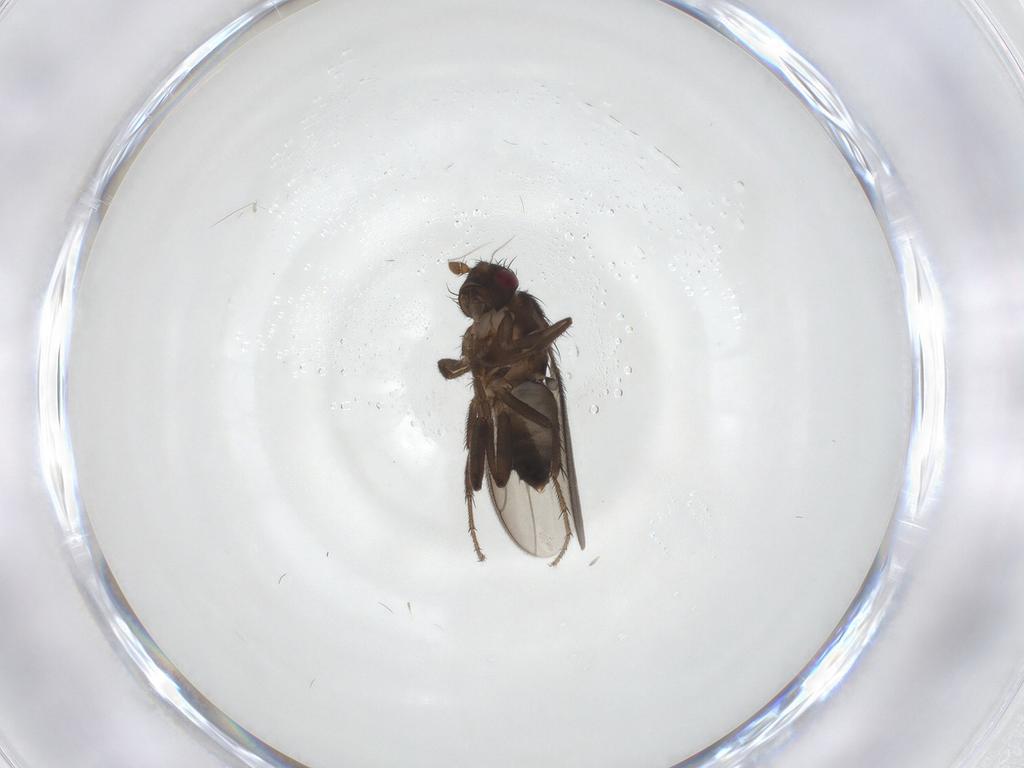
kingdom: Animalia
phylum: Arthropoda
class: Insecta
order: Diptera
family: Sphaeroceridae
